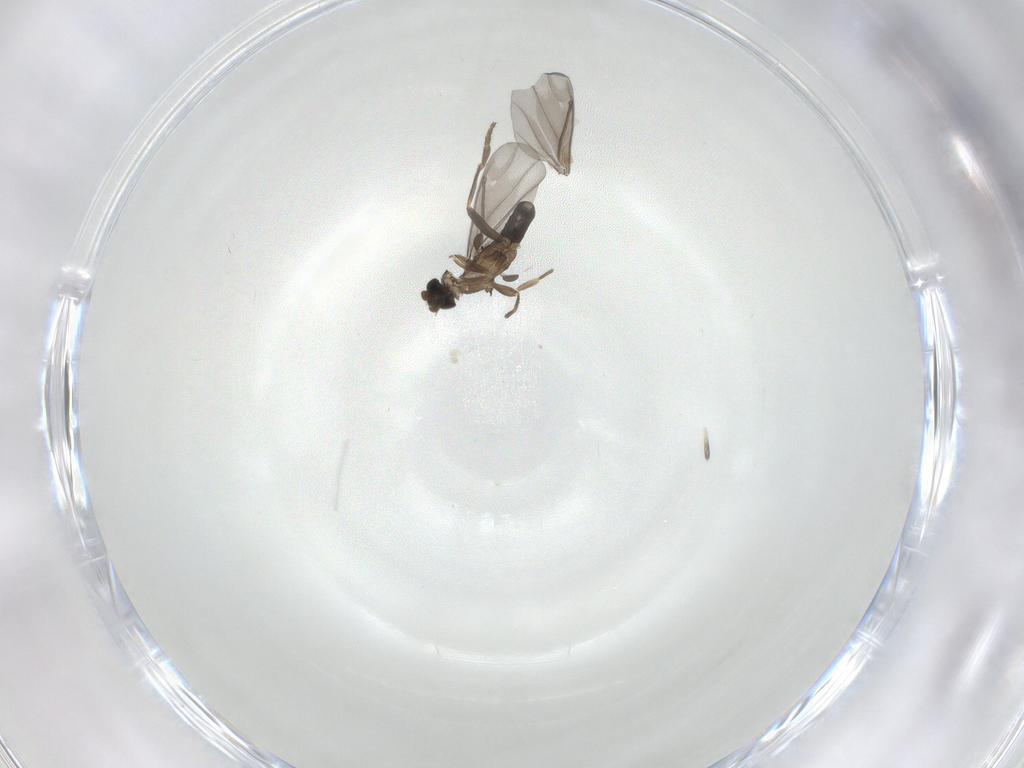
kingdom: Animalia
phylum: Arthropoda
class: Insecta
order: Diptera
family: Phoridae
